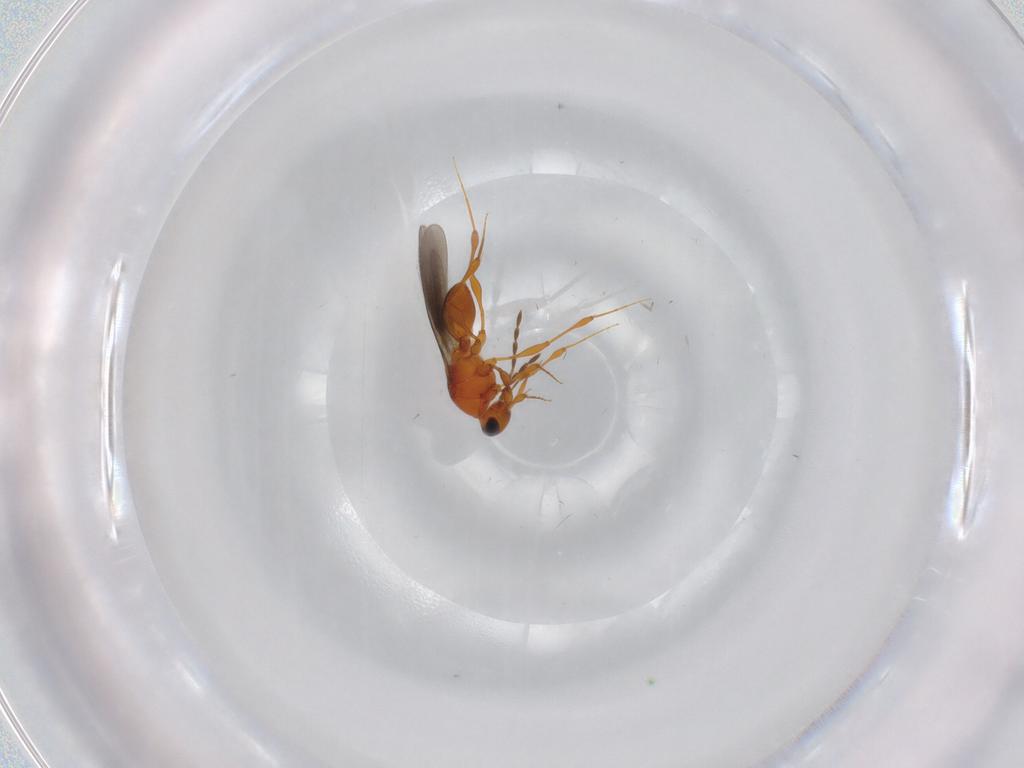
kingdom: Animalia
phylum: Arthropoda
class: Insecta
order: Hymenoptera
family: Platygastridae
